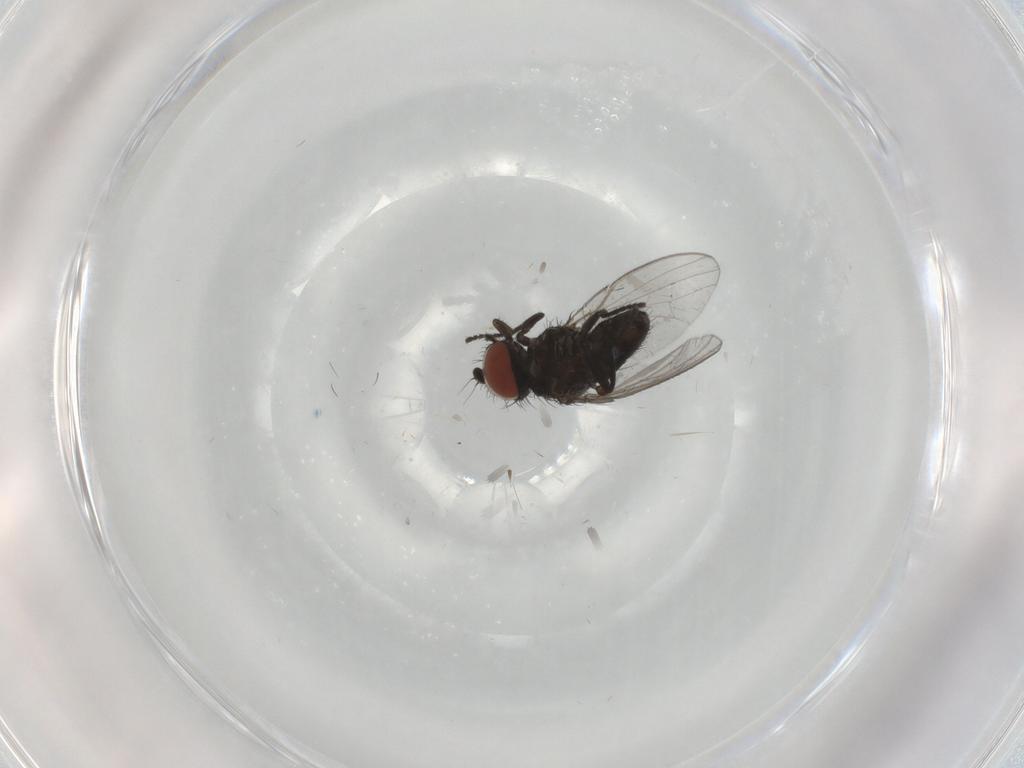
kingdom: Animalia
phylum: Arthropoda
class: Insecta
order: Diptera
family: Milichiidae
